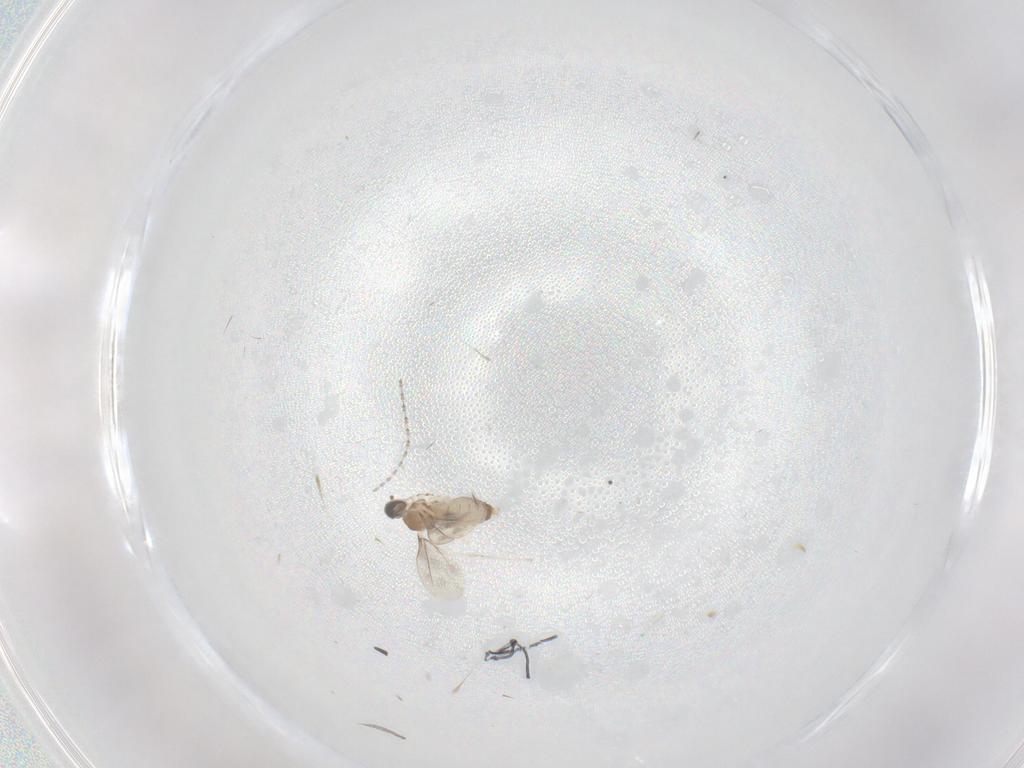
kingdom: Animalia
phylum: Arthropoda
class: Insecta
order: Diptera
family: Cecidomyiidae
